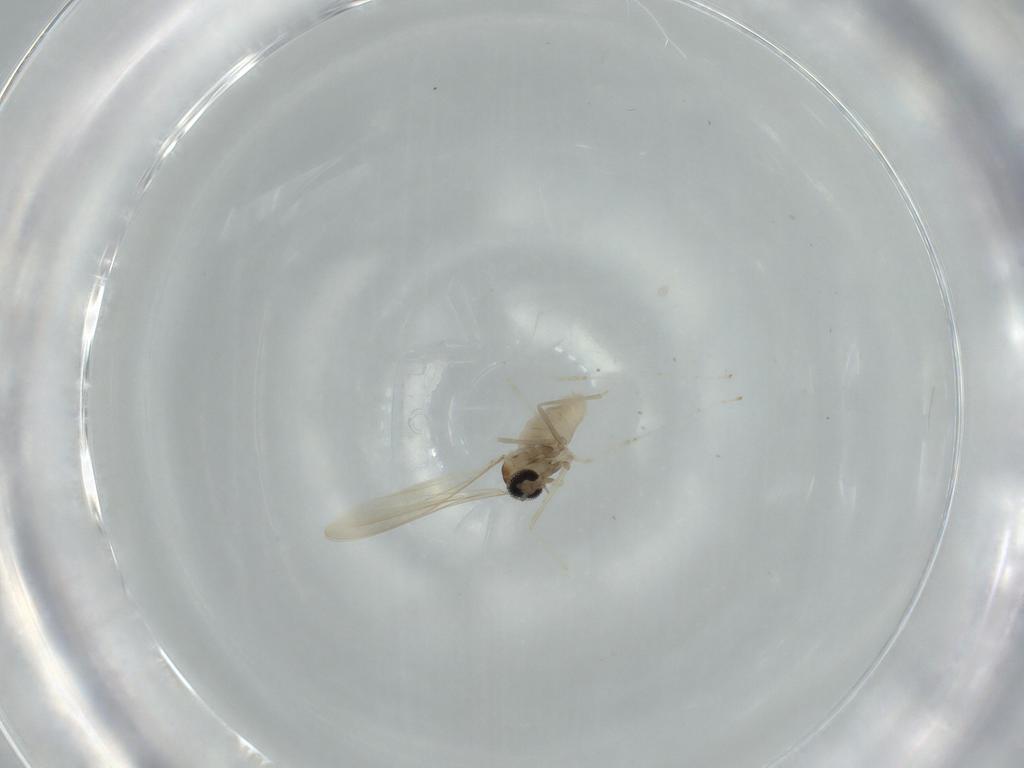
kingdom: Animalia
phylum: Arthropoda
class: Insecta
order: Diptera
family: Cecidomyiidae
